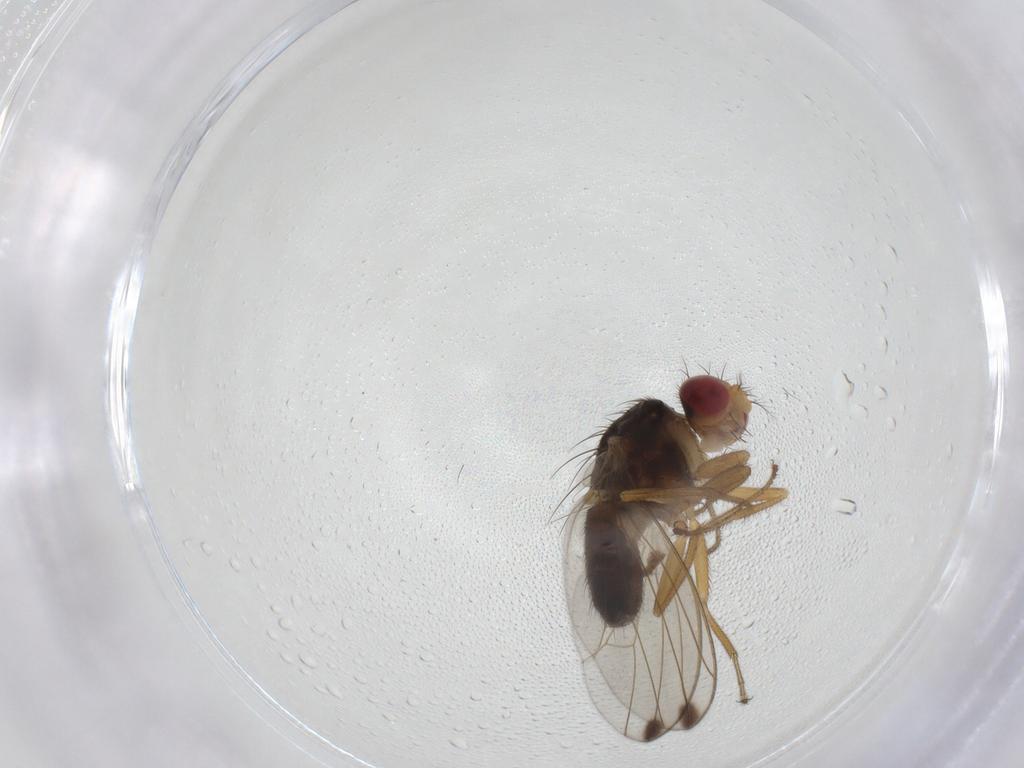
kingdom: Animalia
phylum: Arthropoda
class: Insecta
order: Diptera
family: Drosophilidae
